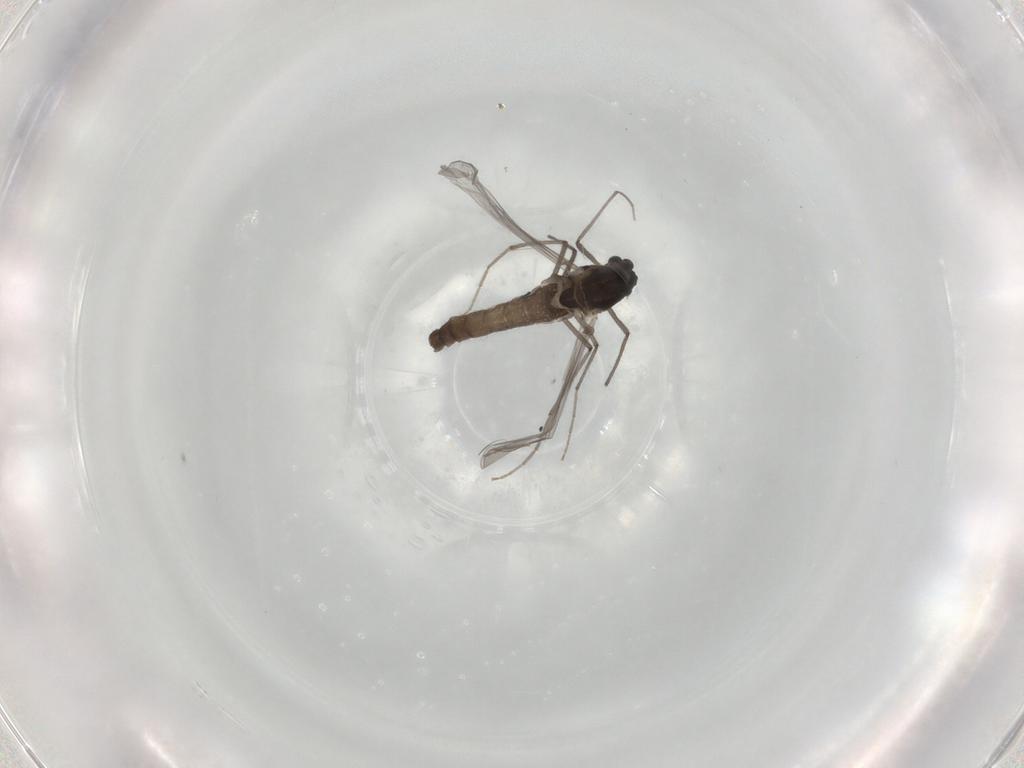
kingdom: Animalia
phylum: Arthropoda
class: Insecta
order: Diptera
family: Chironomidae
